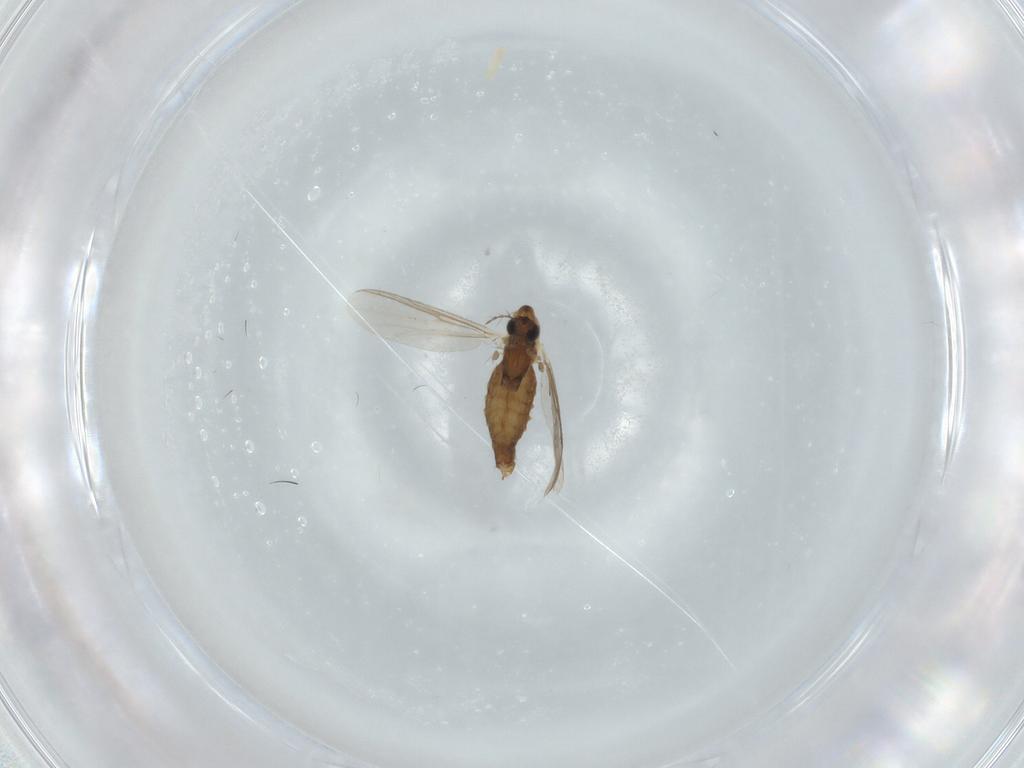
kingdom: Animalia
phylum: Arthropoda
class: Insecta
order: Diptera
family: Chironomidae
